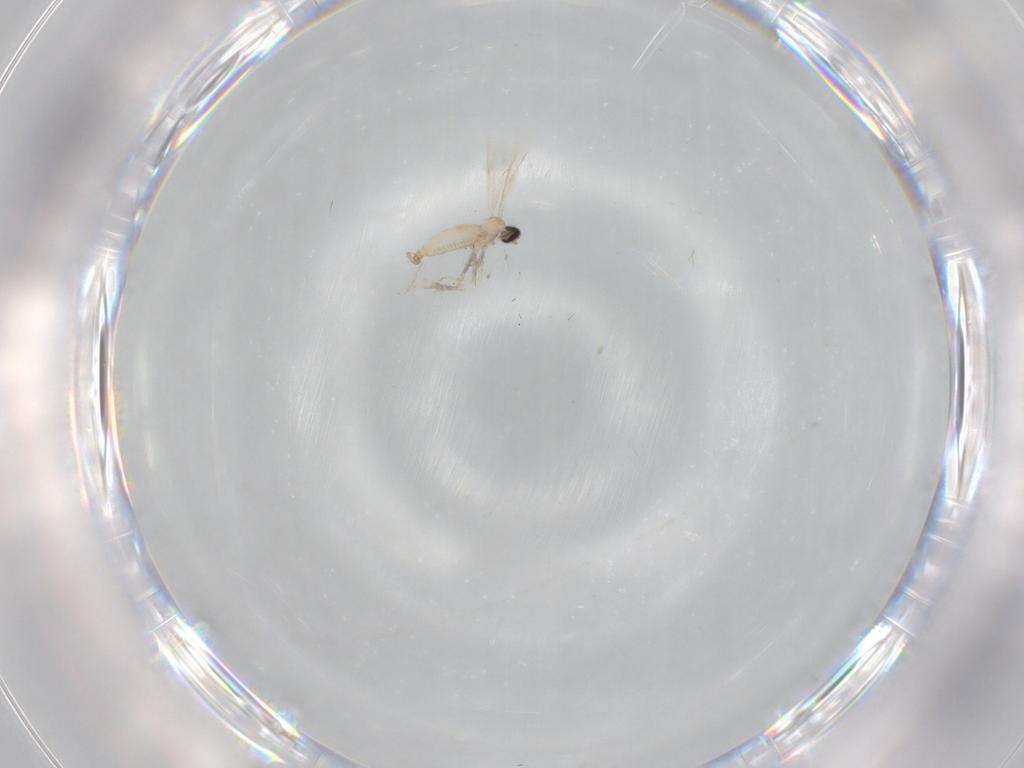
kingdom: Animalia
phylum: Arthropoda
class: Insecta
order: Diptera
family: Cecidomyiidae
